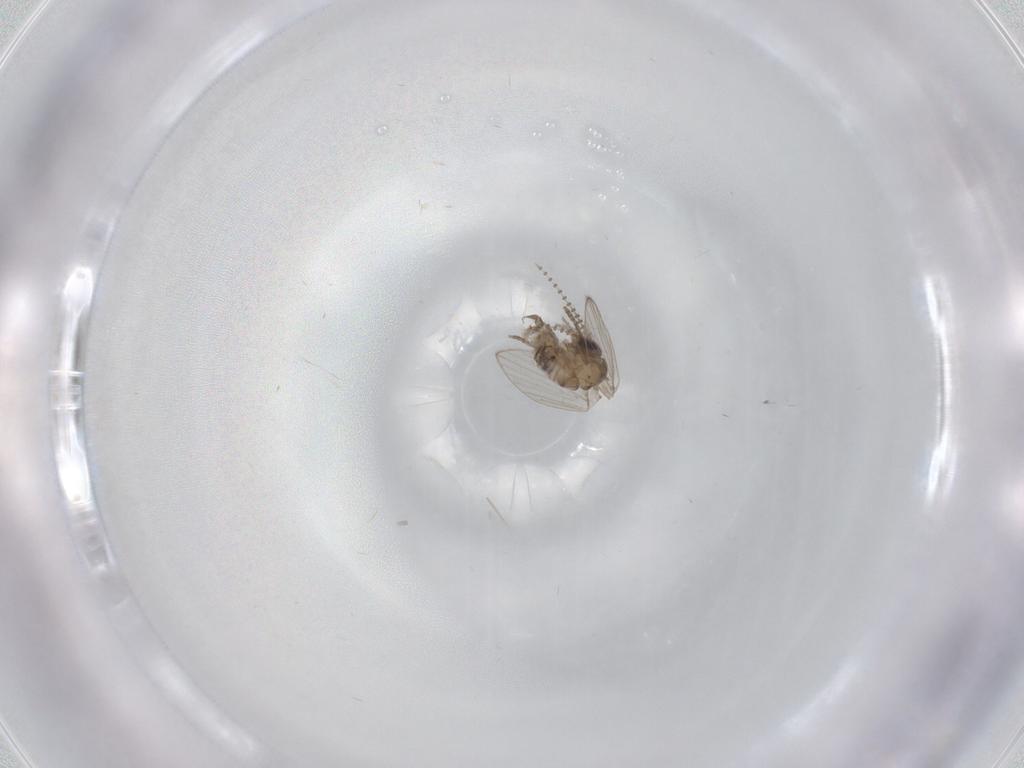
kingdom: Animalia
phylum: Arthropoda
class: Insecta
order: Diptera
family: Psychodidae
